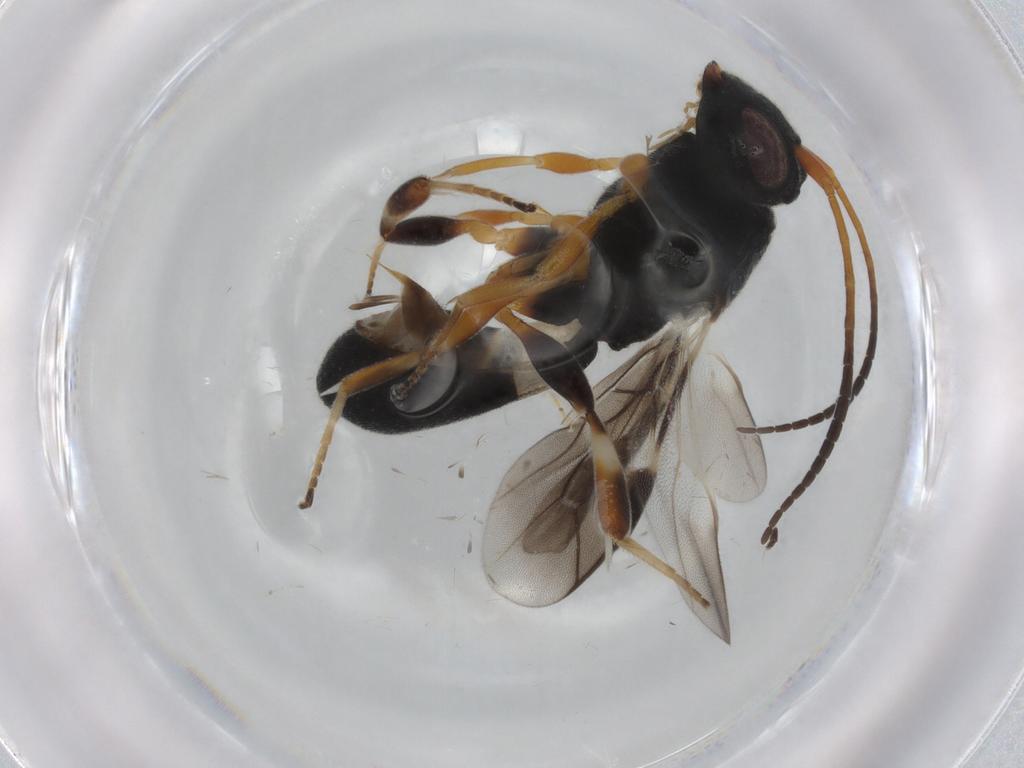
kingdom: Animalia
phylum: Arthropoda
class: Insecta
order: Hymenoptera
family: Braconidae
